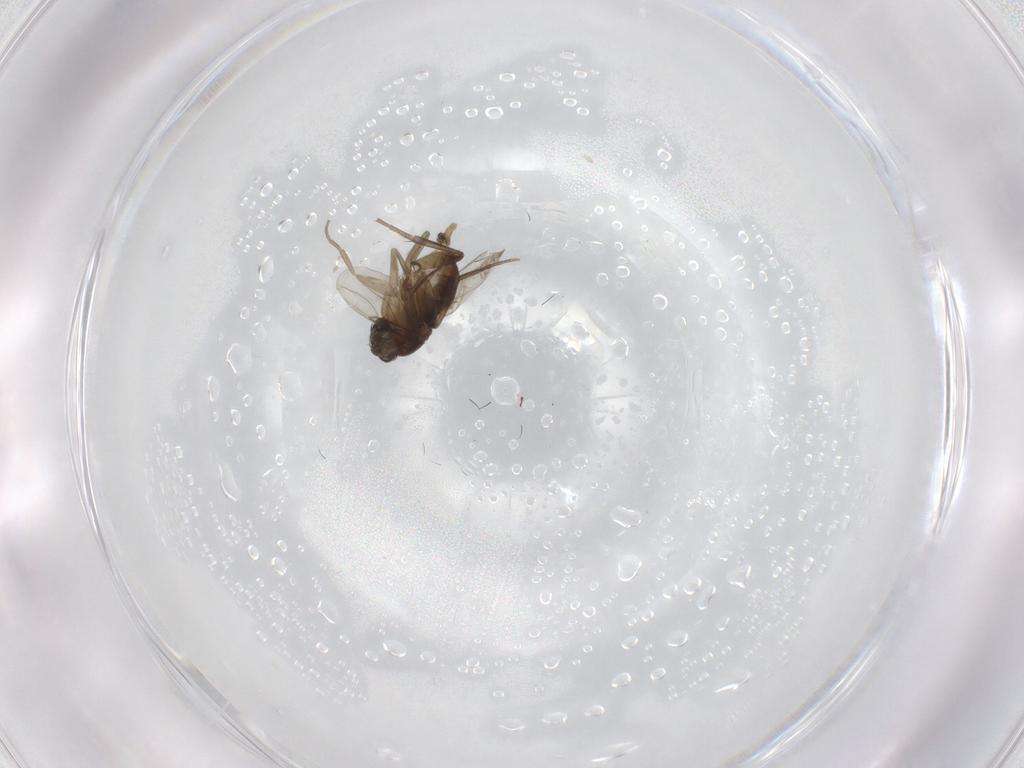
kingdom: Animalia
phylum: Arthropoda
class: Insecta
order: Diptera
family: Phoridae
